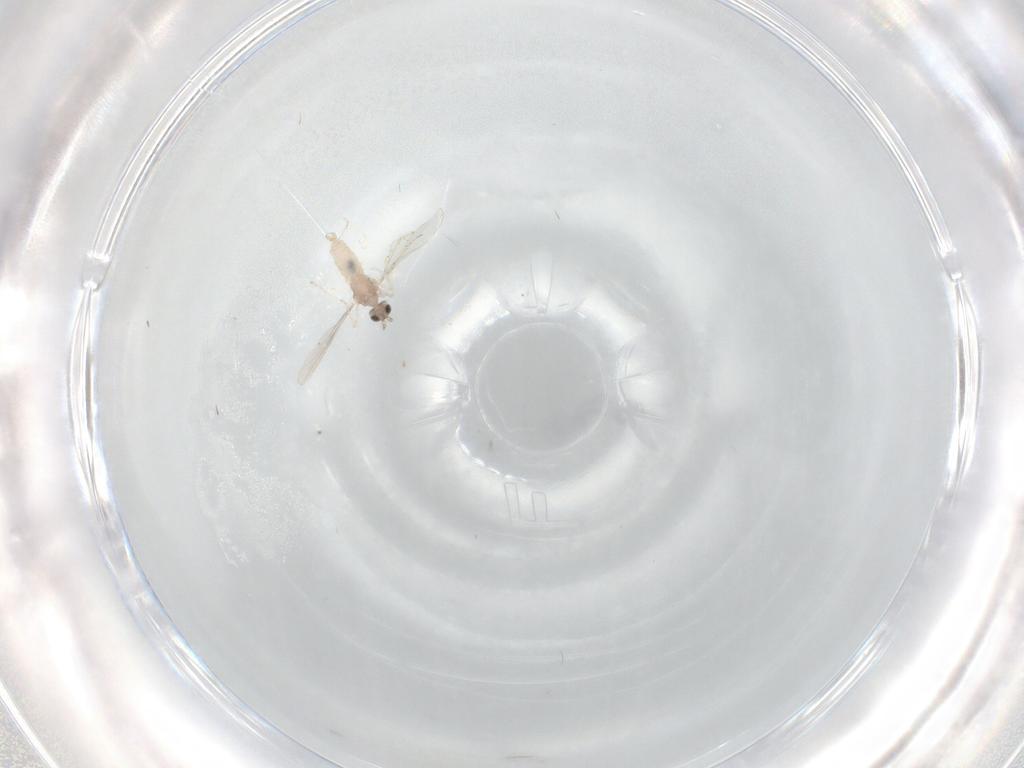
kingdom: Animalia
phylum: Arthropoda
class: Insecta
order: Diptera
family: Cecidomyiidae
